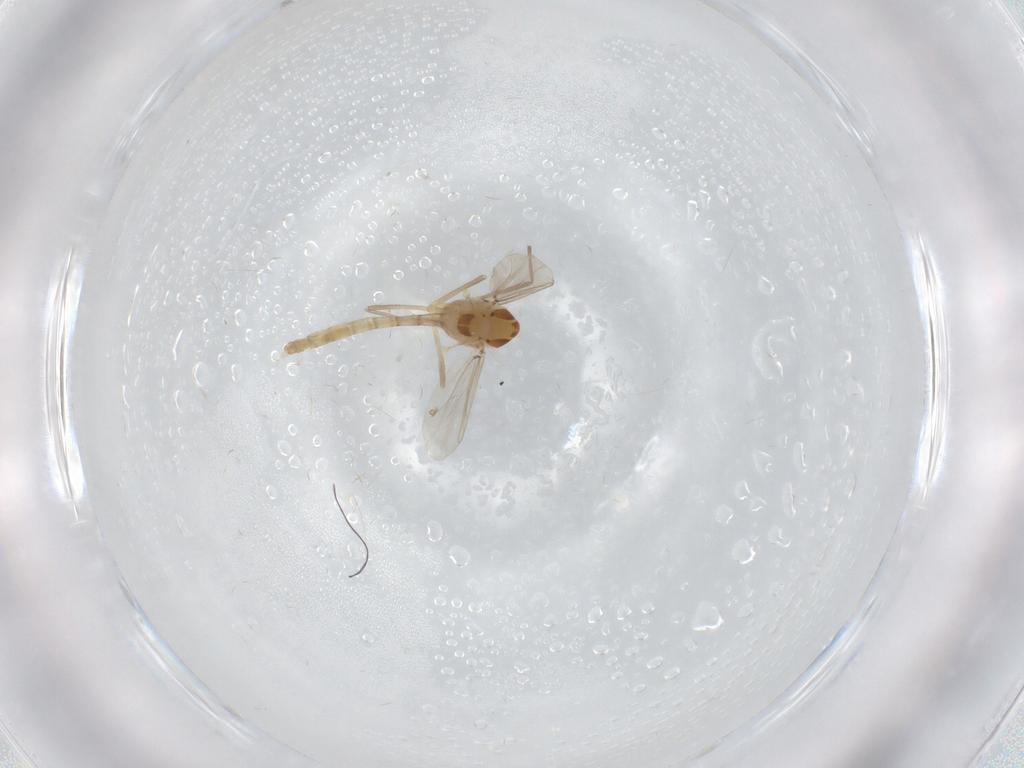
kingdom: Animalia
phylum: Arthropoda
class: Insecta
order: Diptera
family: Chironomidae
